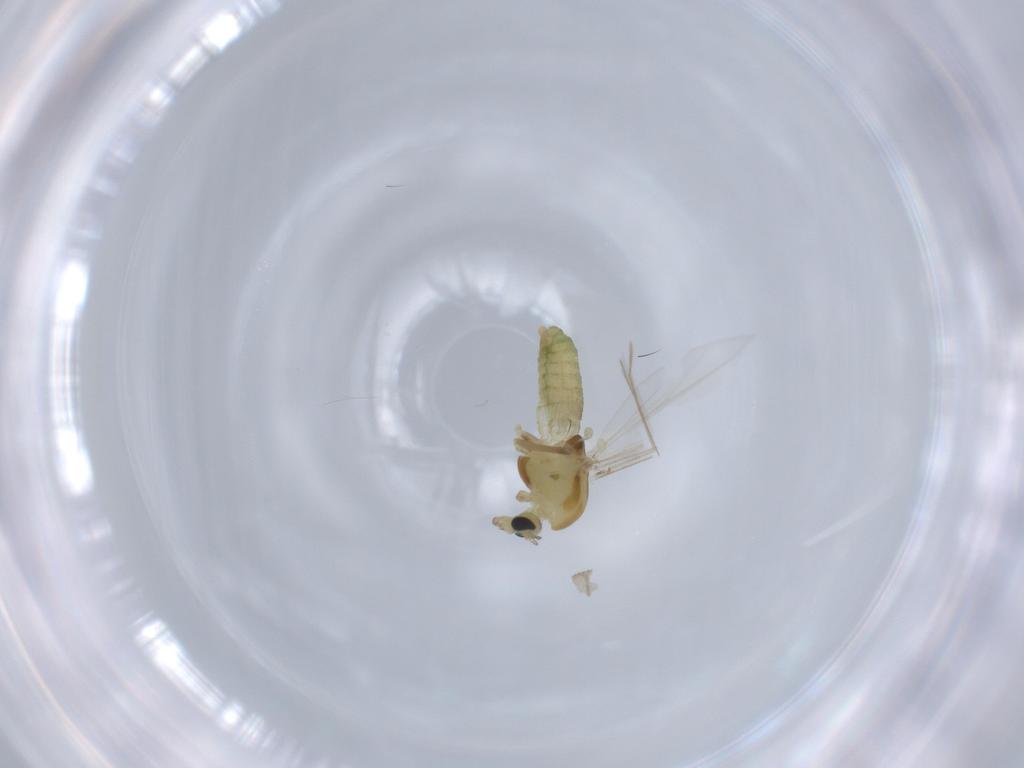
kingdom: Animalia
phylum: Arthropoda
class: Insecta
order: Diptera
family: Chironomidae
